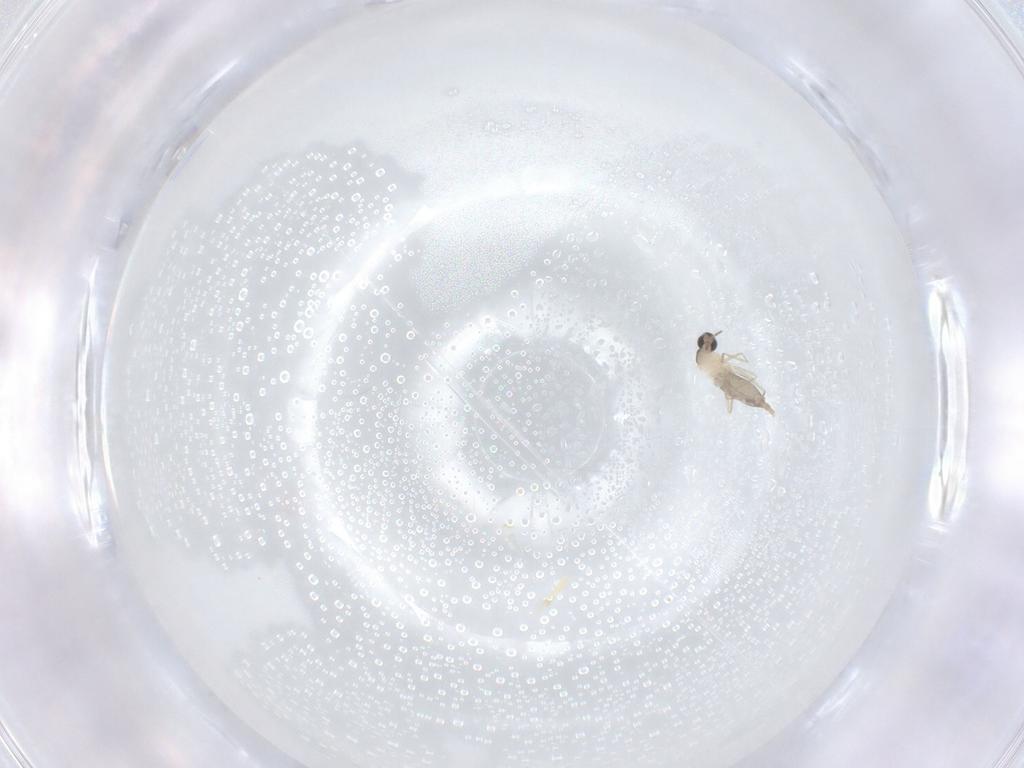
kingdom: Animalia
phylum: Arthropoda
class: Insecta
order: Diptera
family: Cecidomyiidae
